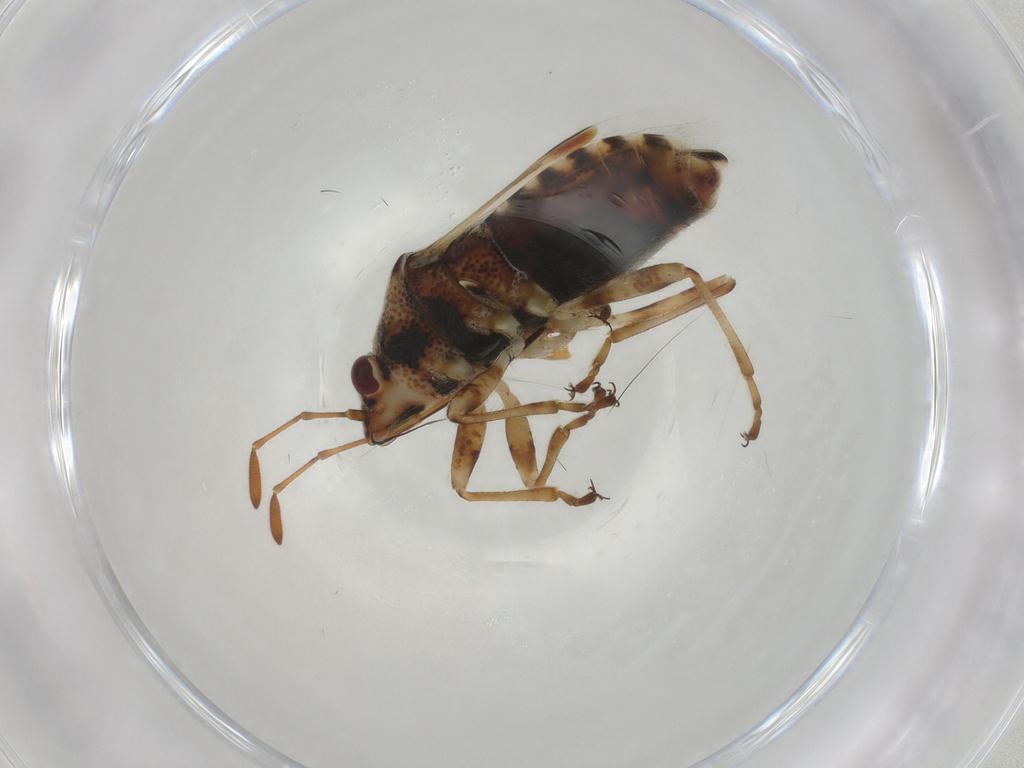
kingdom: Animalia
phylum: Arthropoda
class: Insecta
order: Hemiptera
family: Lygaeidae
